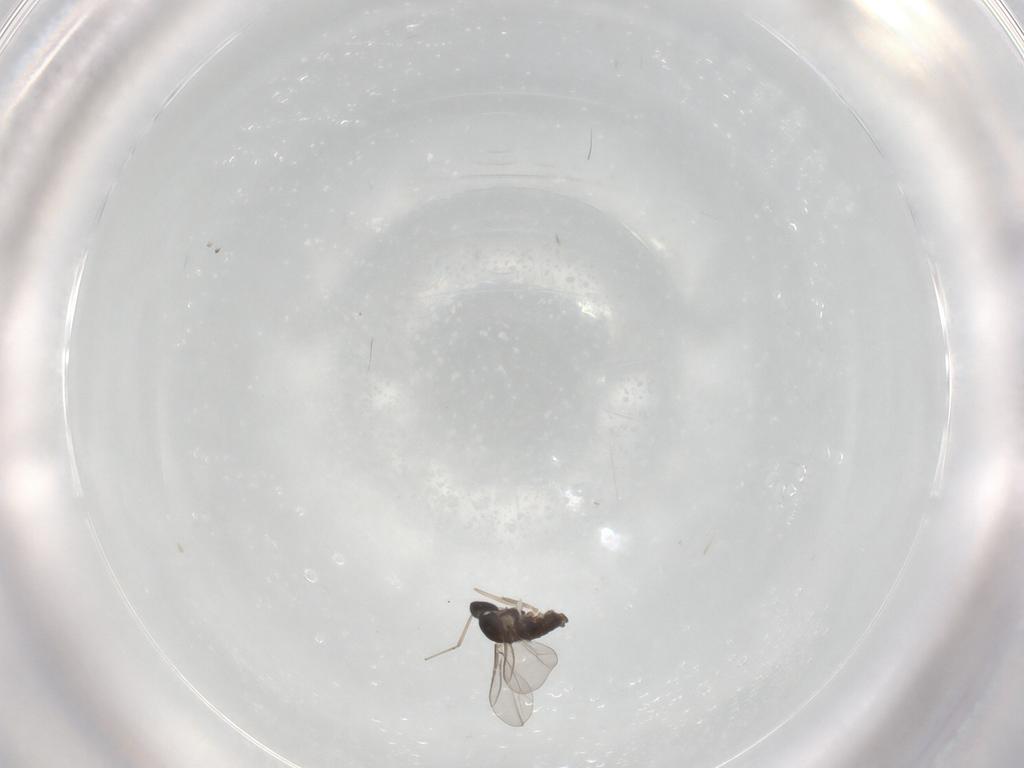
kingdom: Animalia
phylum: Arthropoda
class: Insecta
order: Diptera
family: Cecidomyiidae
